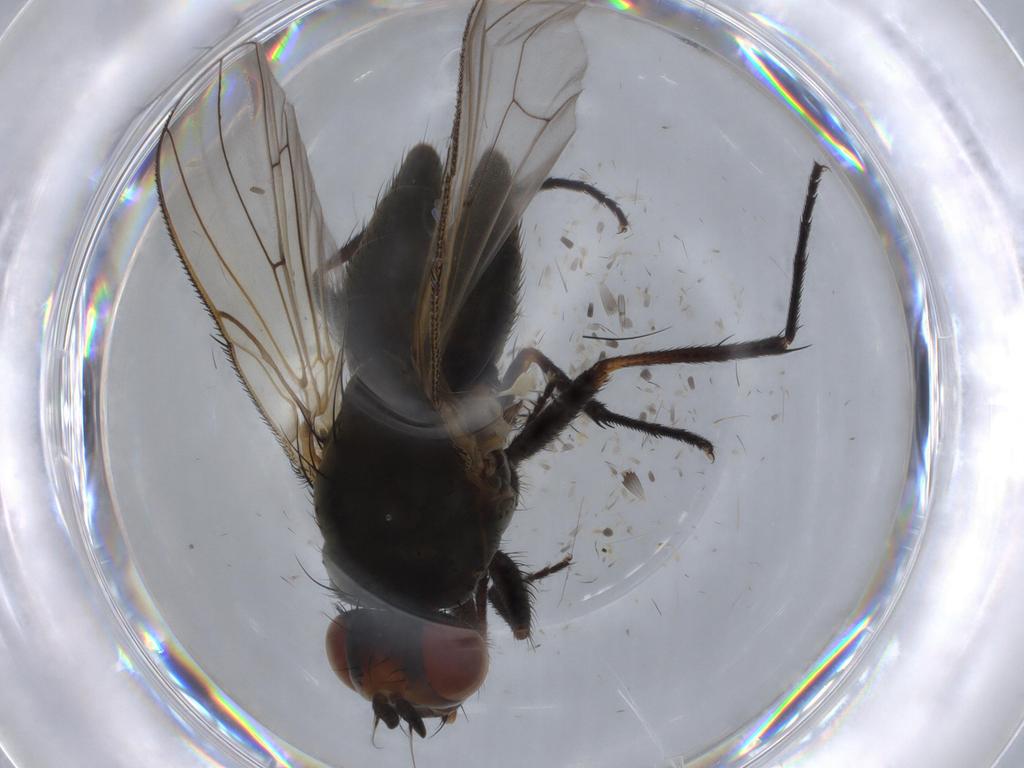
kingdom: Animalia
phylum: Arthropoda
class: Insecta
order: Diptera
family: Anthomyiidae
